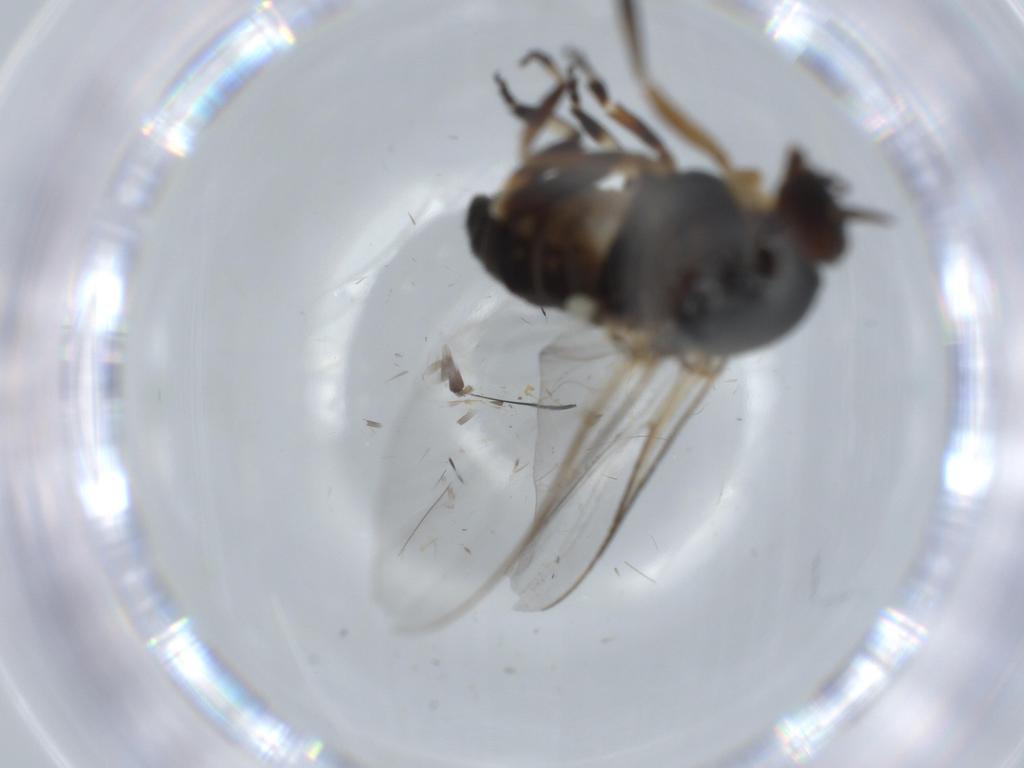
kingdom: Animalia
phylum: Arthropoda
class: Insecta
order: Diptera
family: Cecidomyiidae
